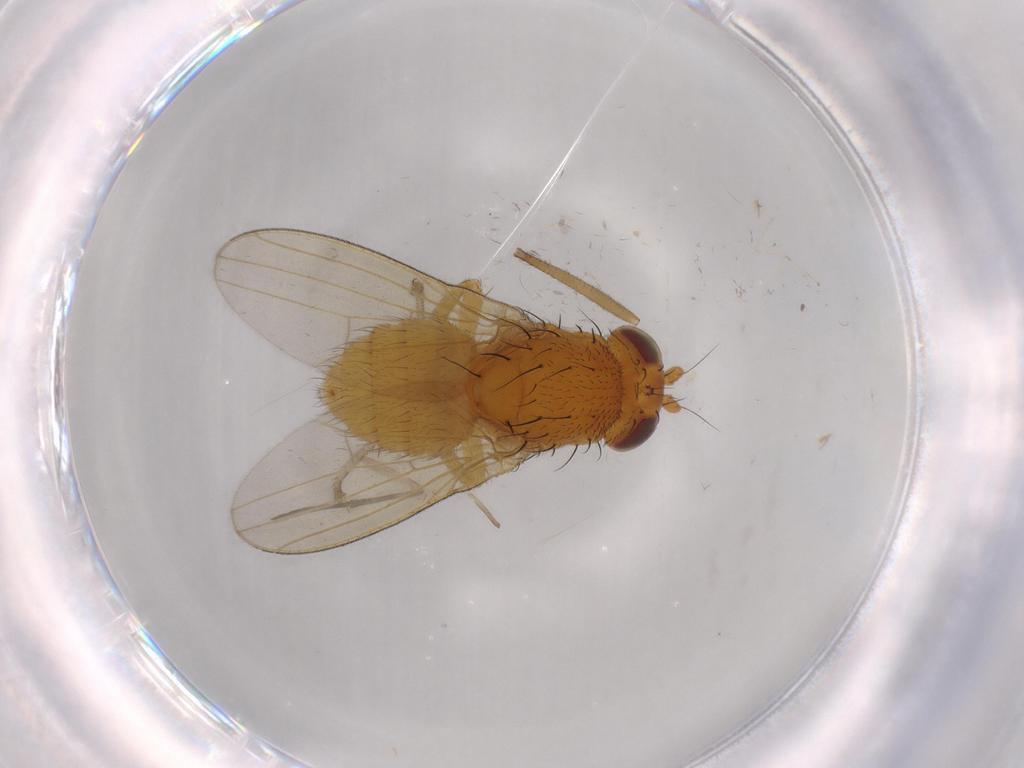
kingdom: Animalia
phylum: Arthropoda
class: Insecta
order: Diptera
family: Lauxaniidae
